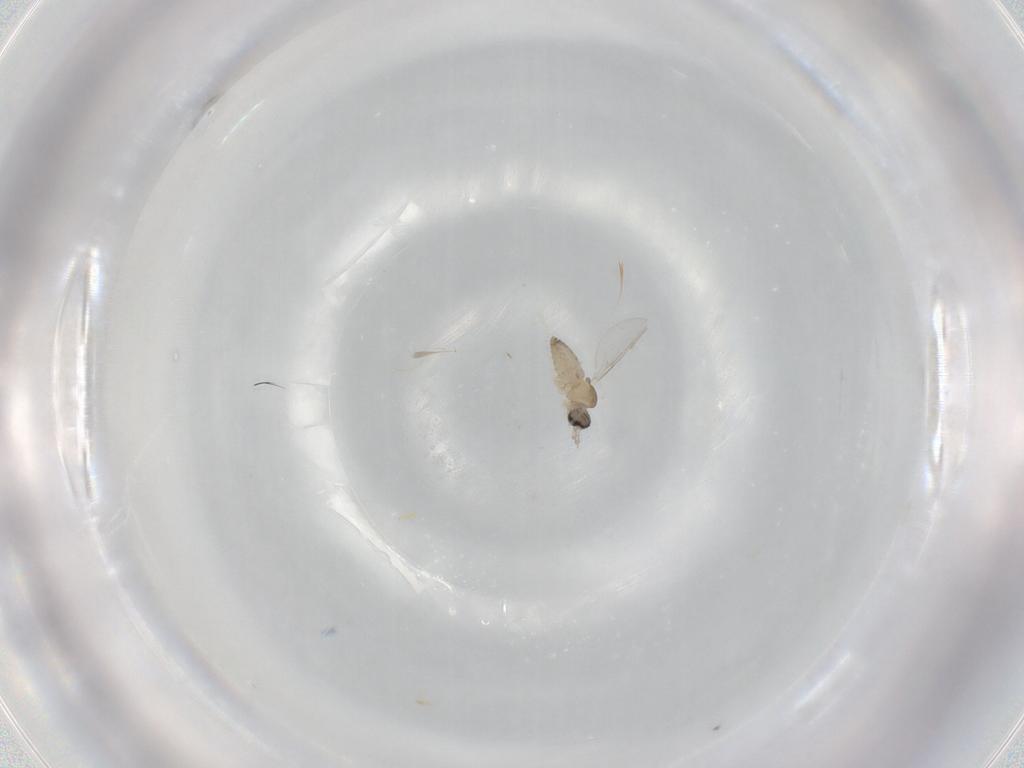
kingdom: Animalia
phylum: Arthropoda
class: Insecta
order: Diptera
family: Cecidomyiidae
